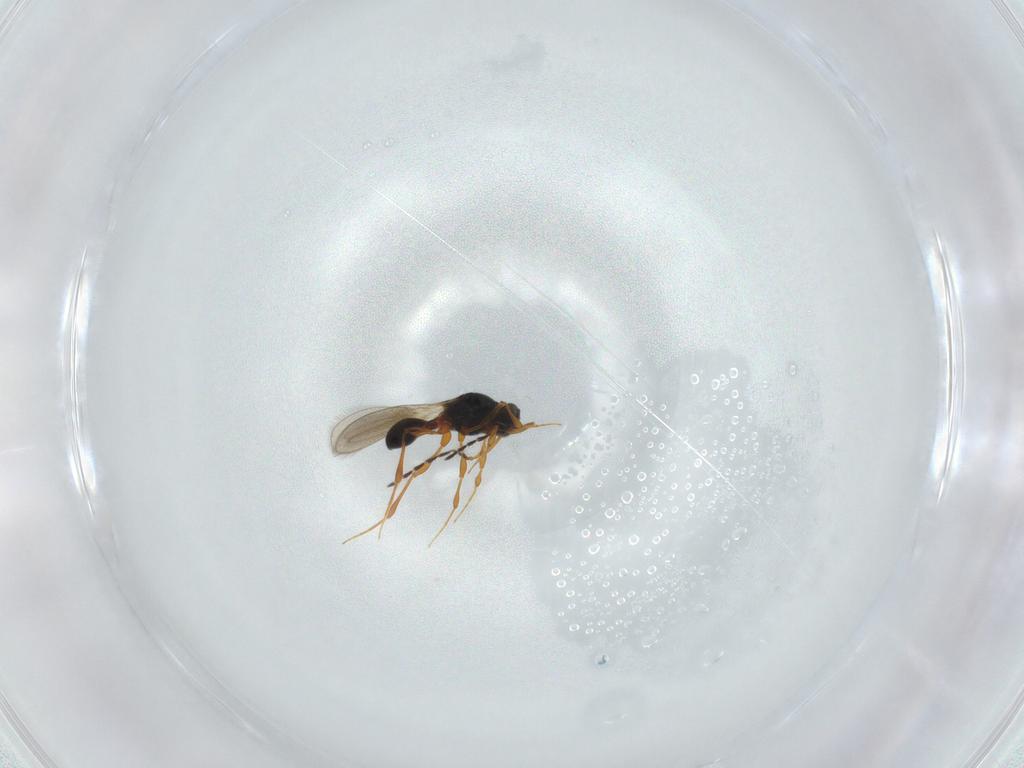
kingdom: Animalia
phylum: Arthropoda
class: Insecta
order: Hymenoptera
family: Platygastridae
